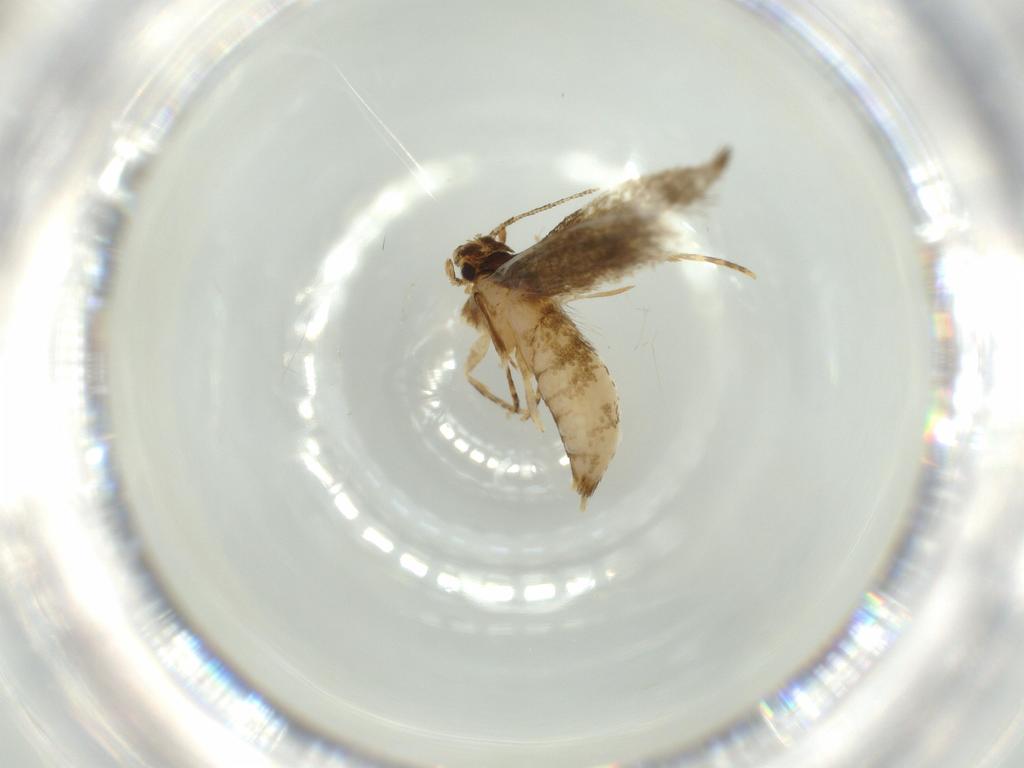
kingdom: Animalia
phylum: Arthropoda
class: Insecta
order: Lepidoptera
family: Tineidae
